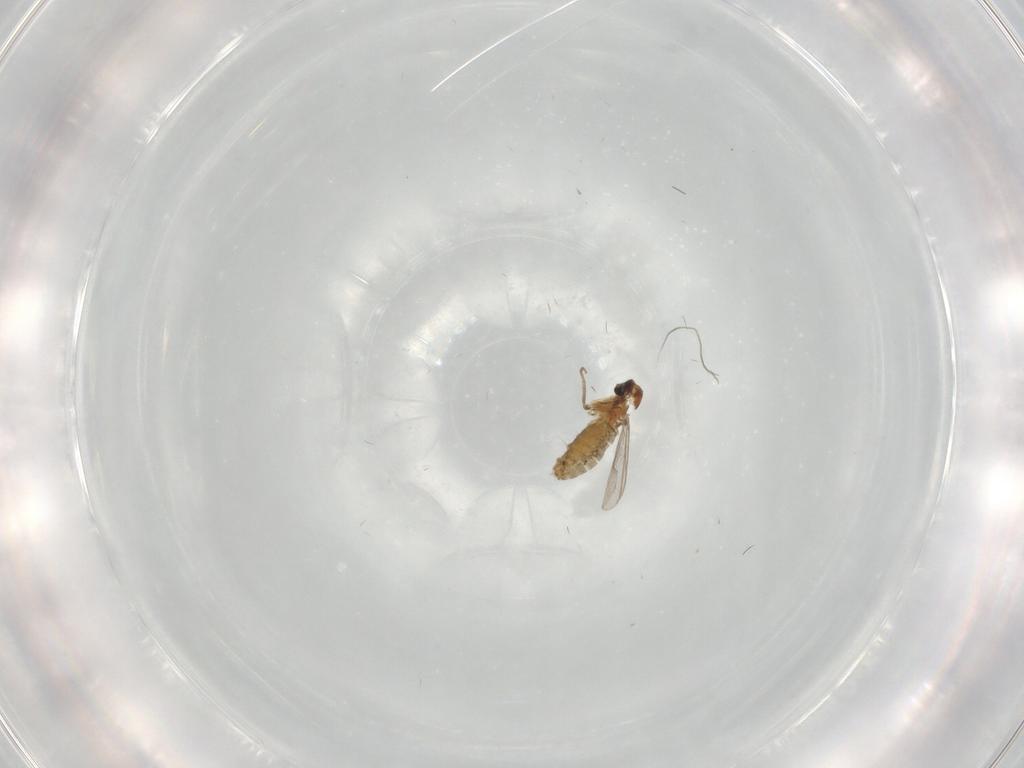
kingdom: Animalia
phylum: Arthropoda
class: Insecta
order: Diptera
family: Chironomidae
